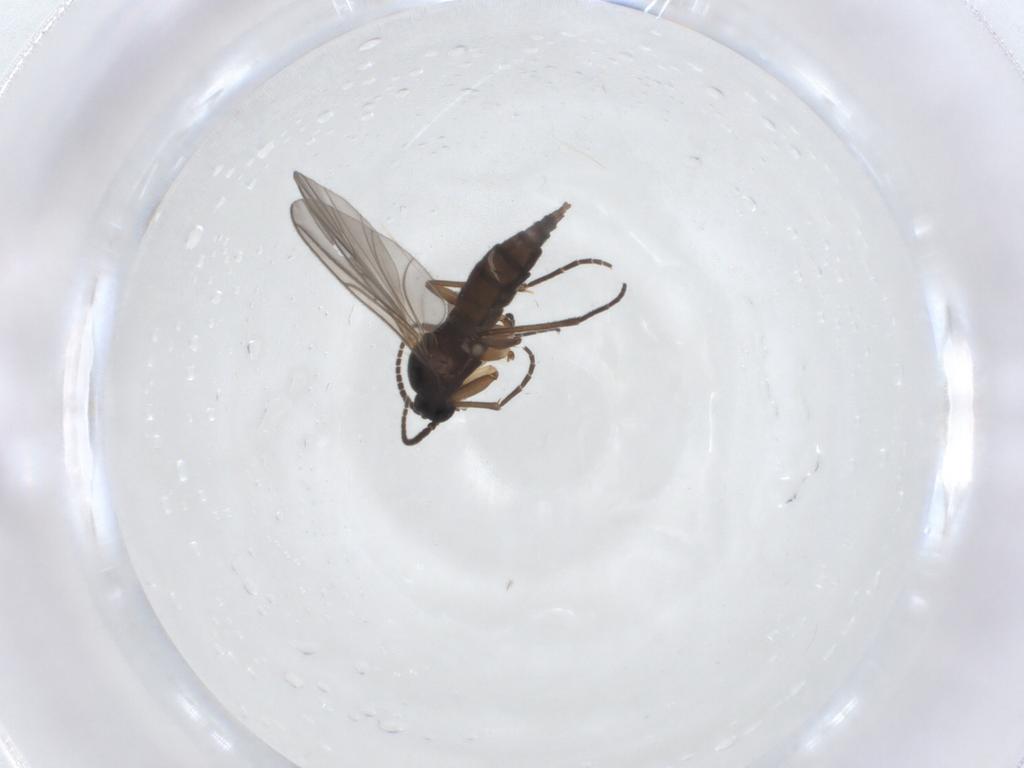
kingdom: Animalia
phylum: Arthropoda
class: Insecta
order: Diptera
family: Sciaridae
